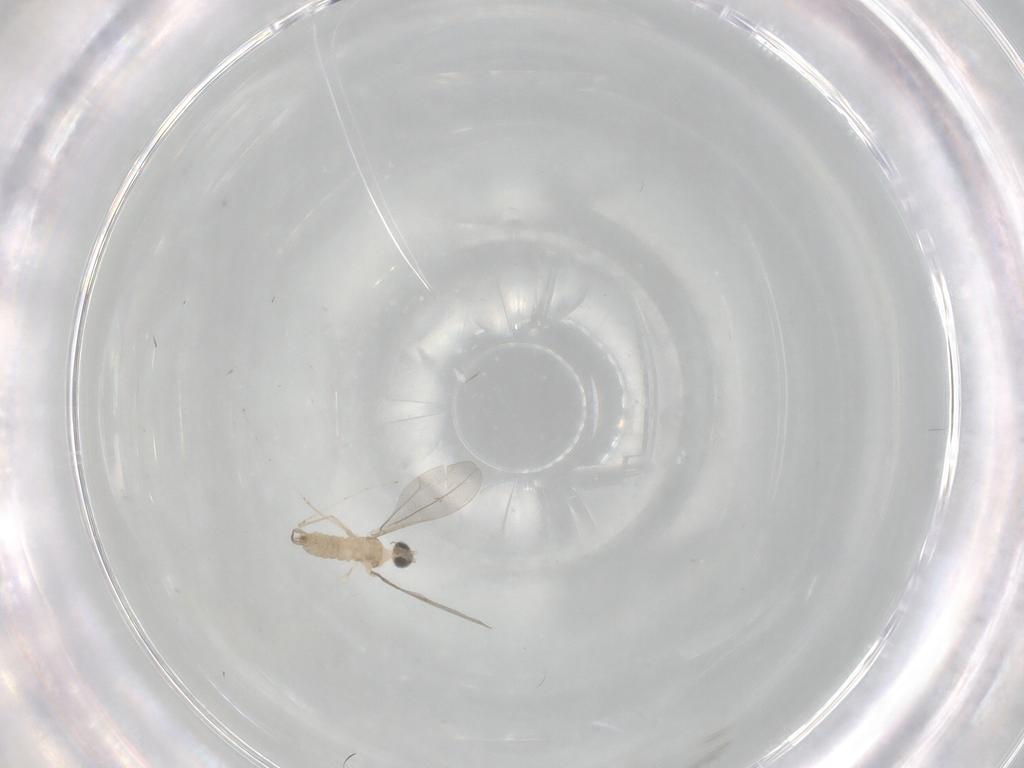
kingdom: Animalia
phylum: Arthropoda
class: Insecta
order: Diptera
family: Cecidomyiidae
